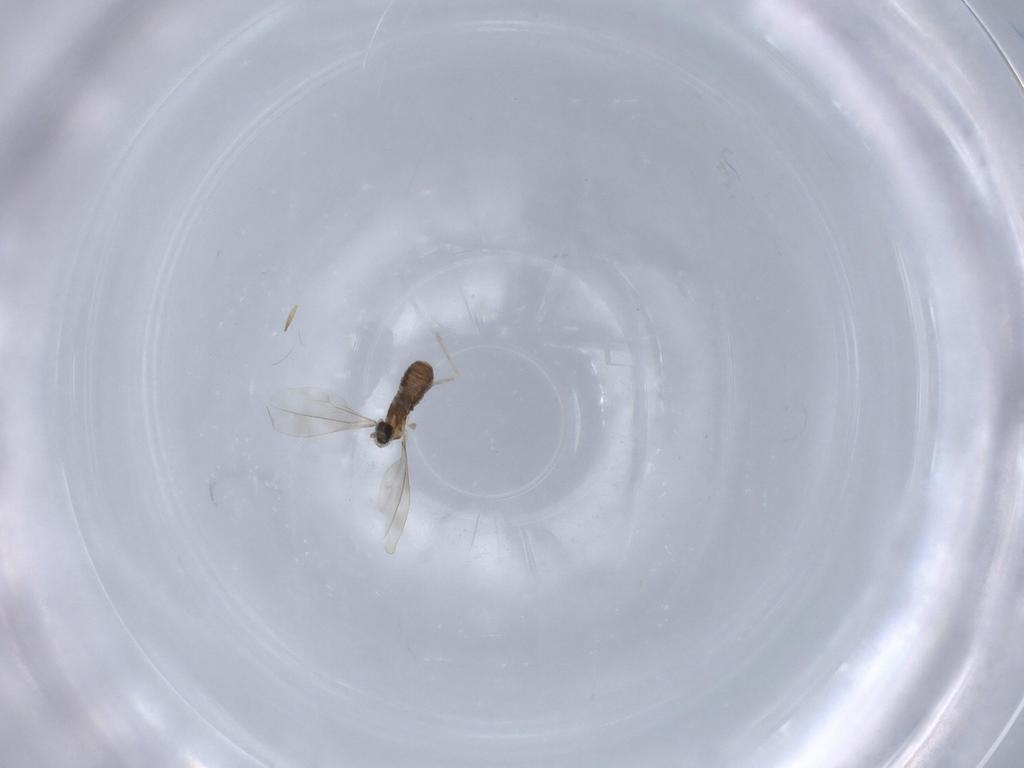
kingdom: Animalia
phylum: Arthropoda
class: Insecta
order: Diptera
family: Cecidomyiidae
